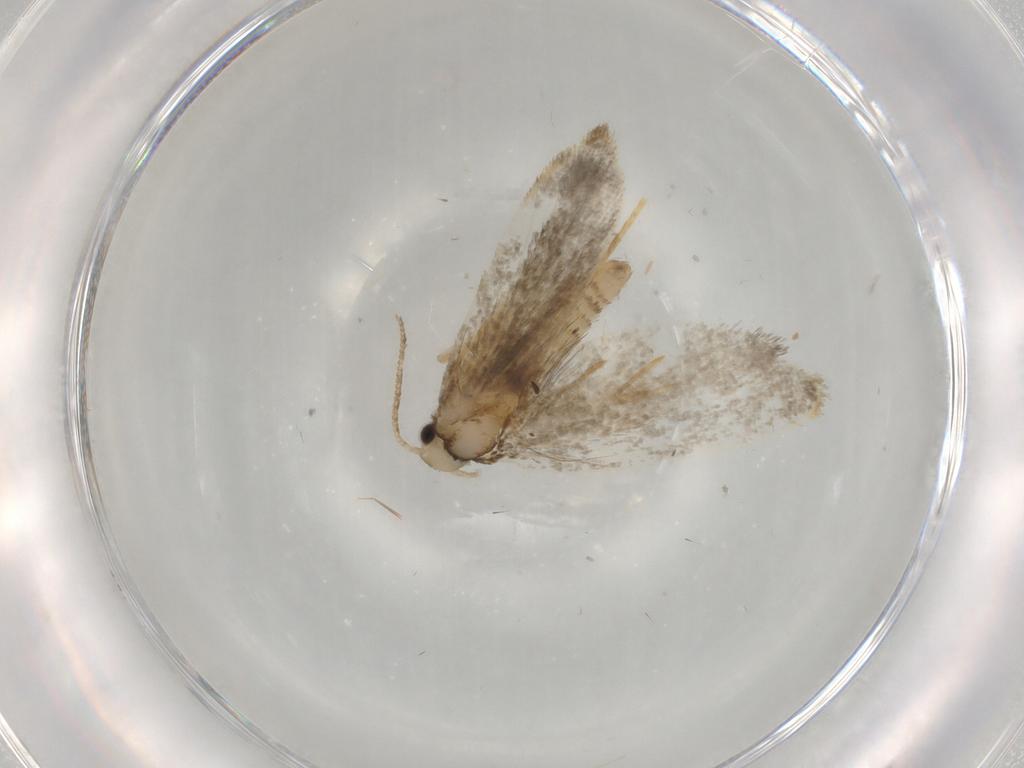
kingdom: Animalia
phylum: Arthropoda
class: Insecta
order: Lepidoptera
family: Psychidae
